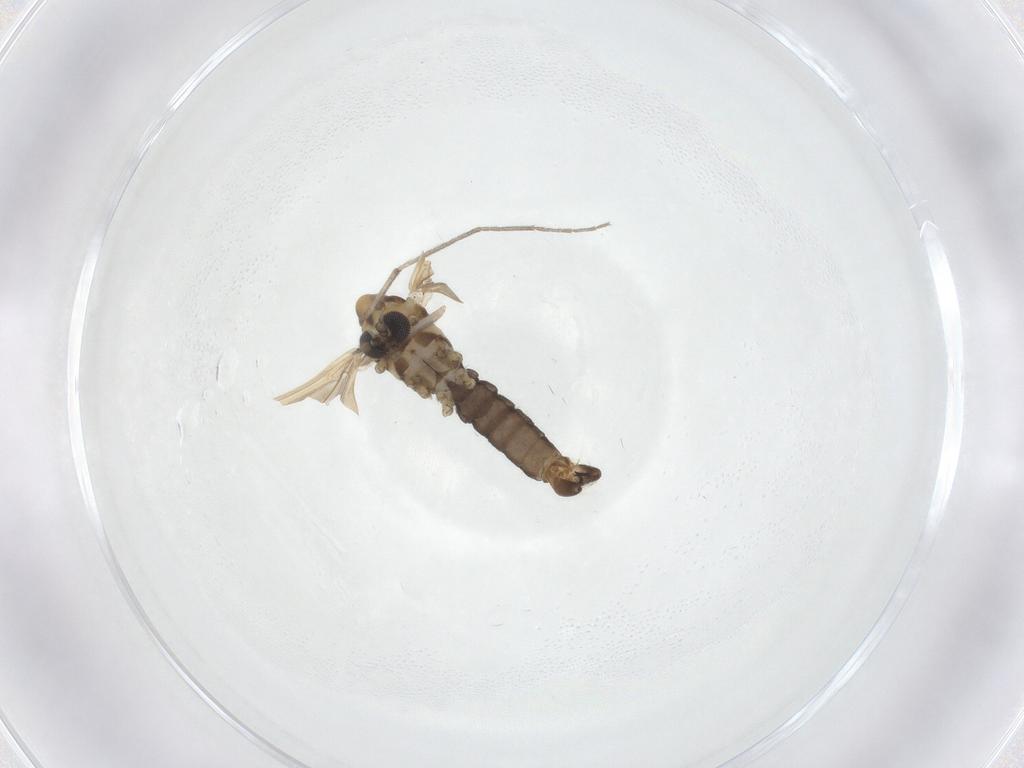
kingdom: Animalia
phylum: Arthropoda
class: Insecta
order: Diptera
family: Limoniidae
